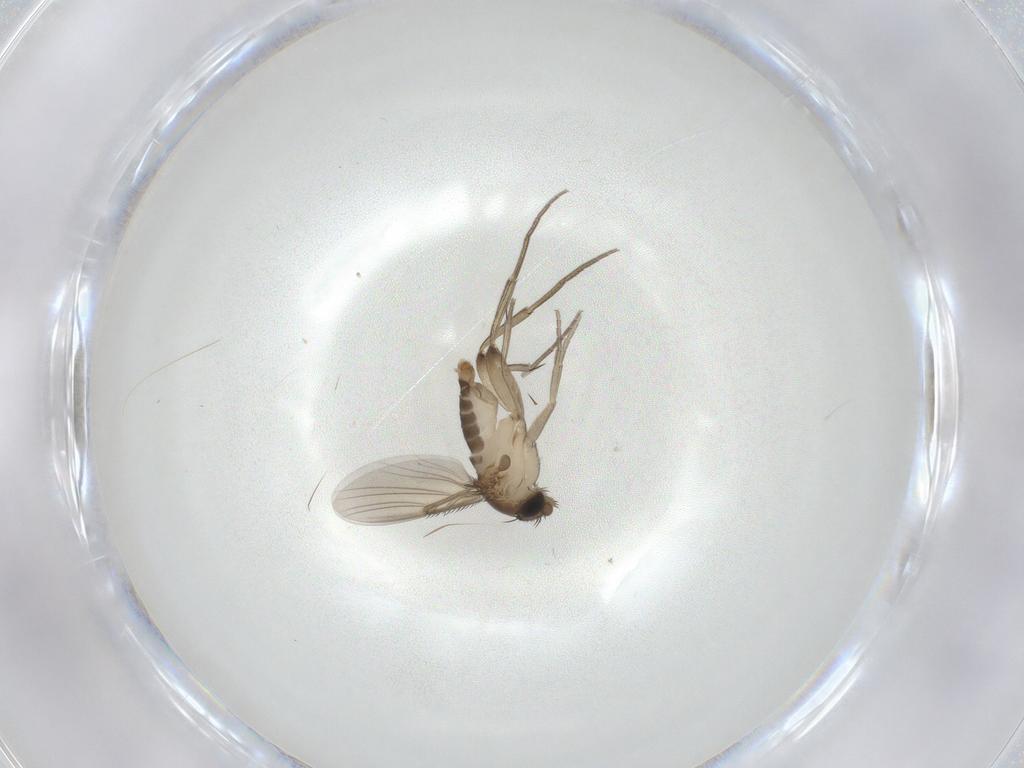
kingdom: Animalia
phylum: Arthropoda
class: Insecta
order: Diptera
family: Phoridae
